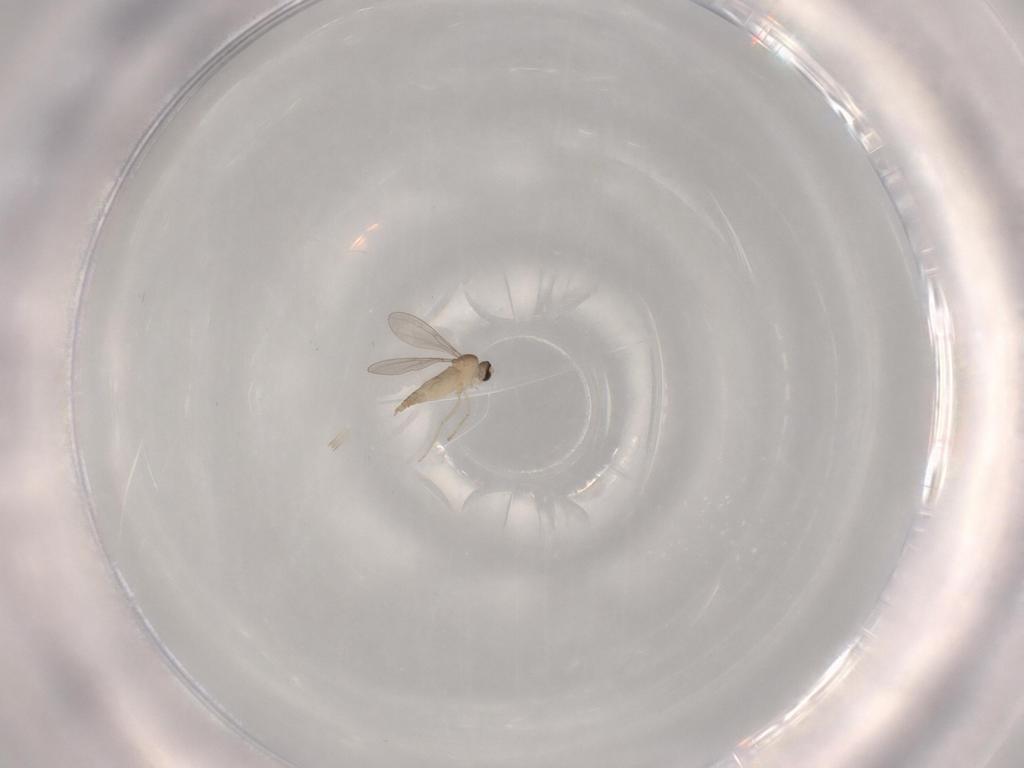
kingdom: Animalia
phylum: Arthropoda
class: Insecta
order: Diptera
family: Cecidomyiidae
